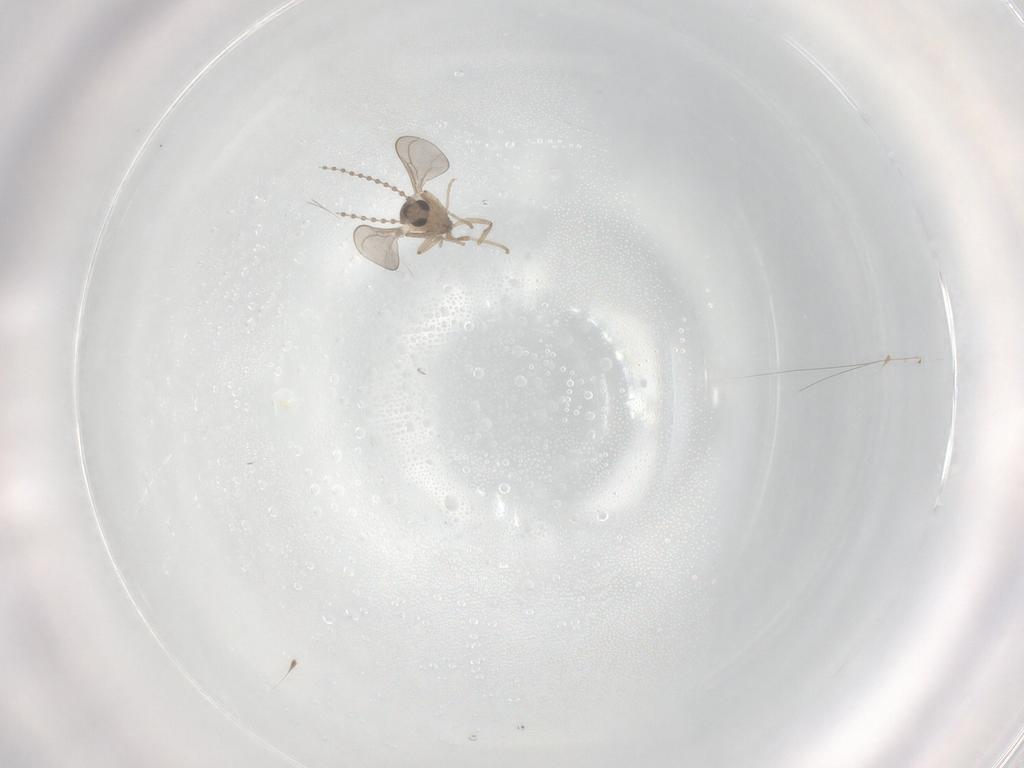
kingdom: Animalia
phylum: Arthropoda
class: Insecta
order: Diptera
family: Cecidomyiidae
